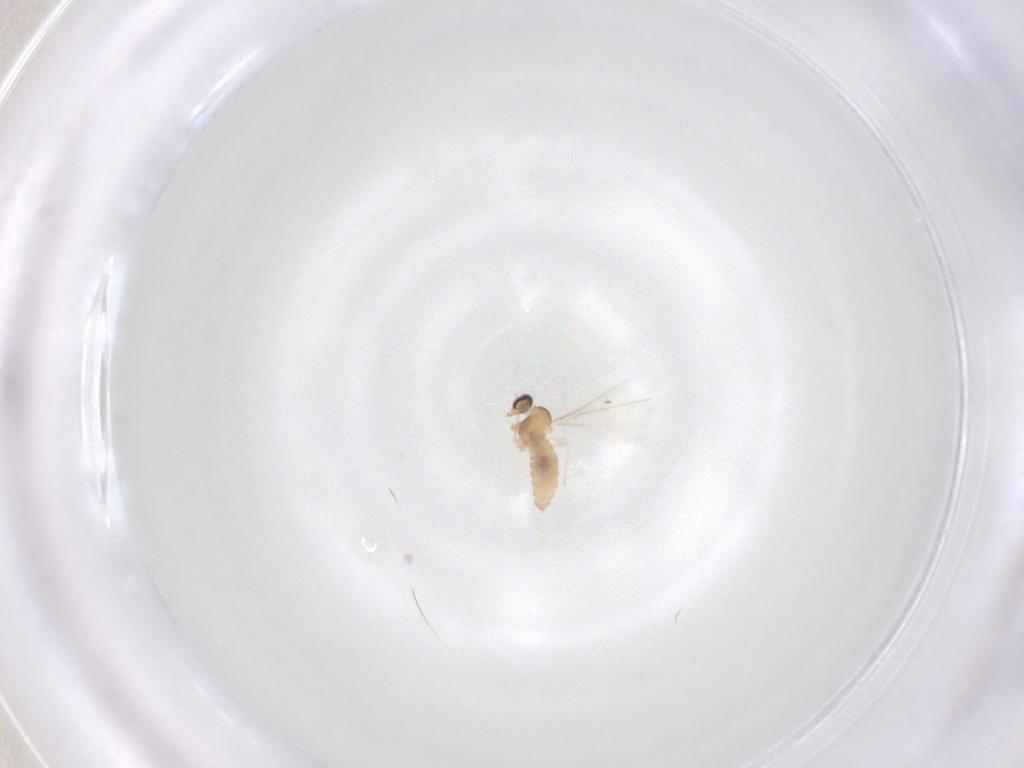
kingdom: Animalia
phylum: Arthropoda
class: Insecta
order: Diptera
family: Cecidomyiidae
